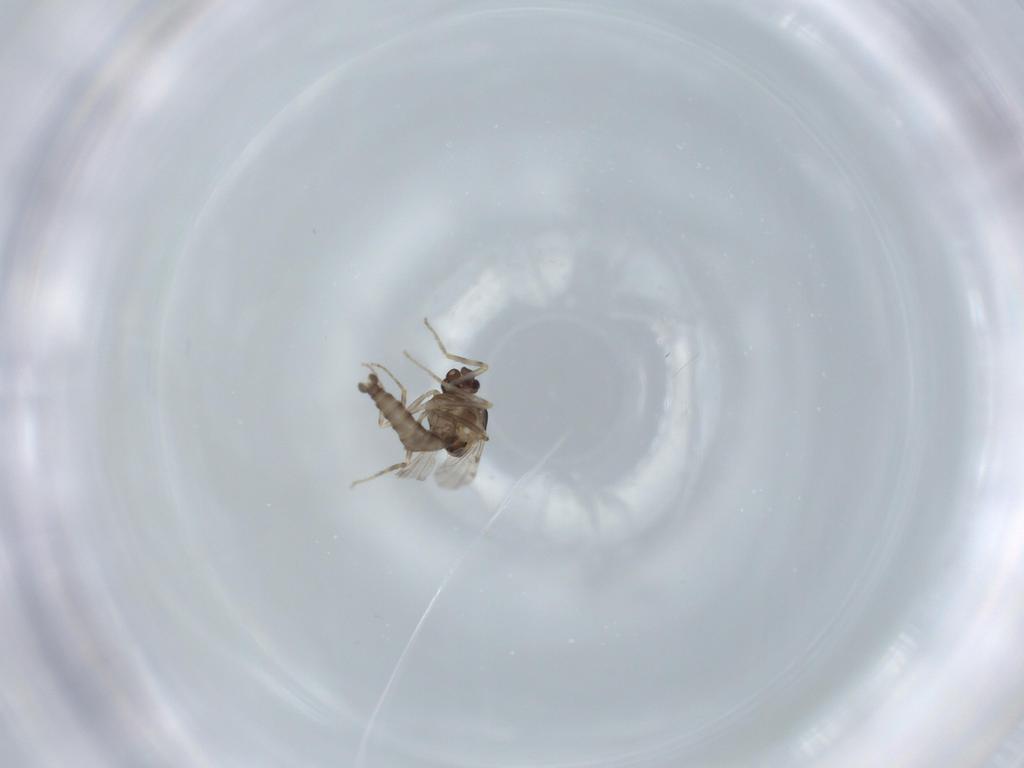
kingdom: Animalia
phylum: Arthropoda
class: Insecta
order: Diptera
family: Ceratopogonidae
